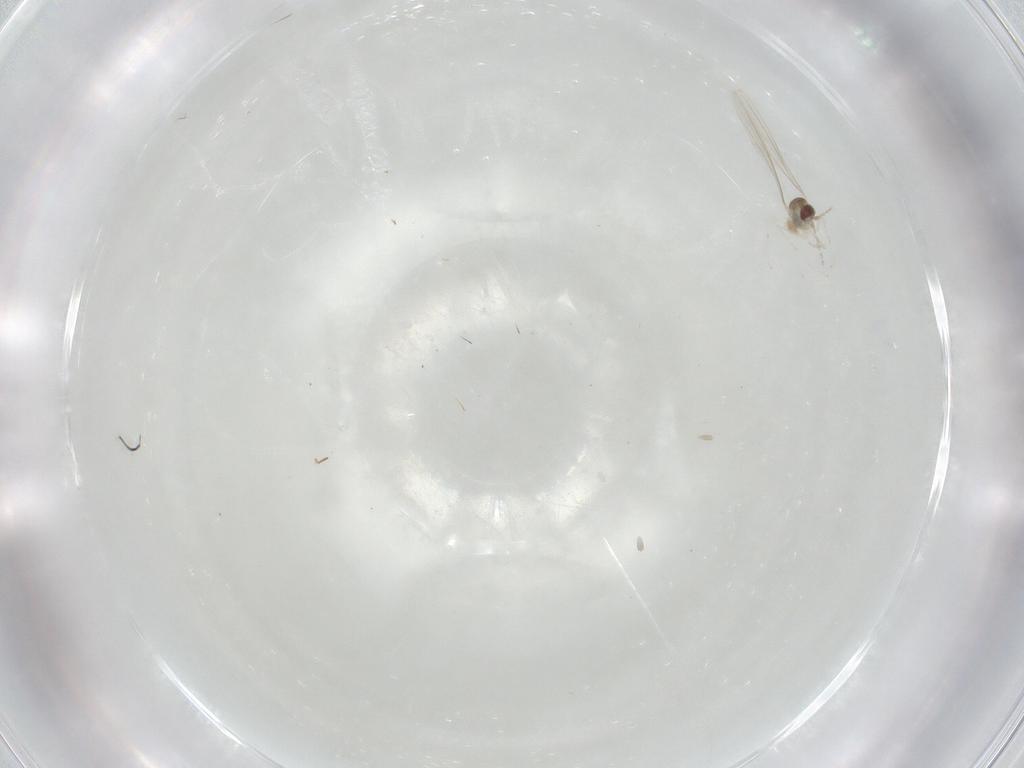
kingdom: Animalia
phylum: Arthropoda
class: Insecta
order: Diptera
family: Cecidomyiidae
